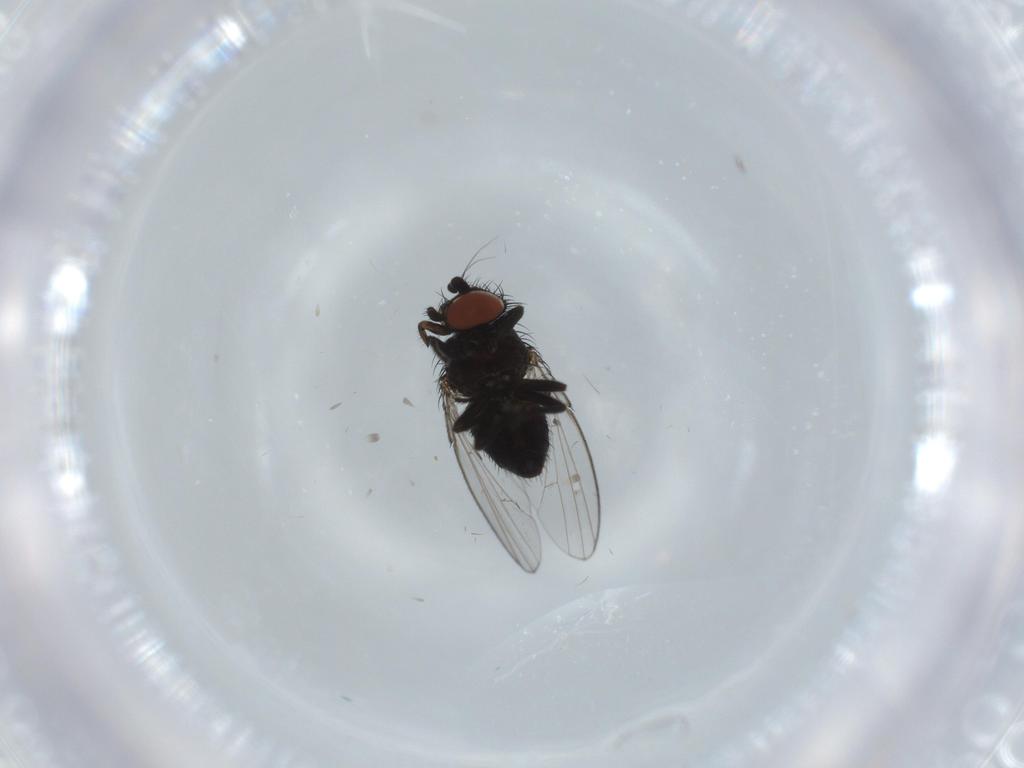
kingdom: Animalia
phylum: Arthropoda
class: Insecta
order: Diptera
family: Milichiidae
